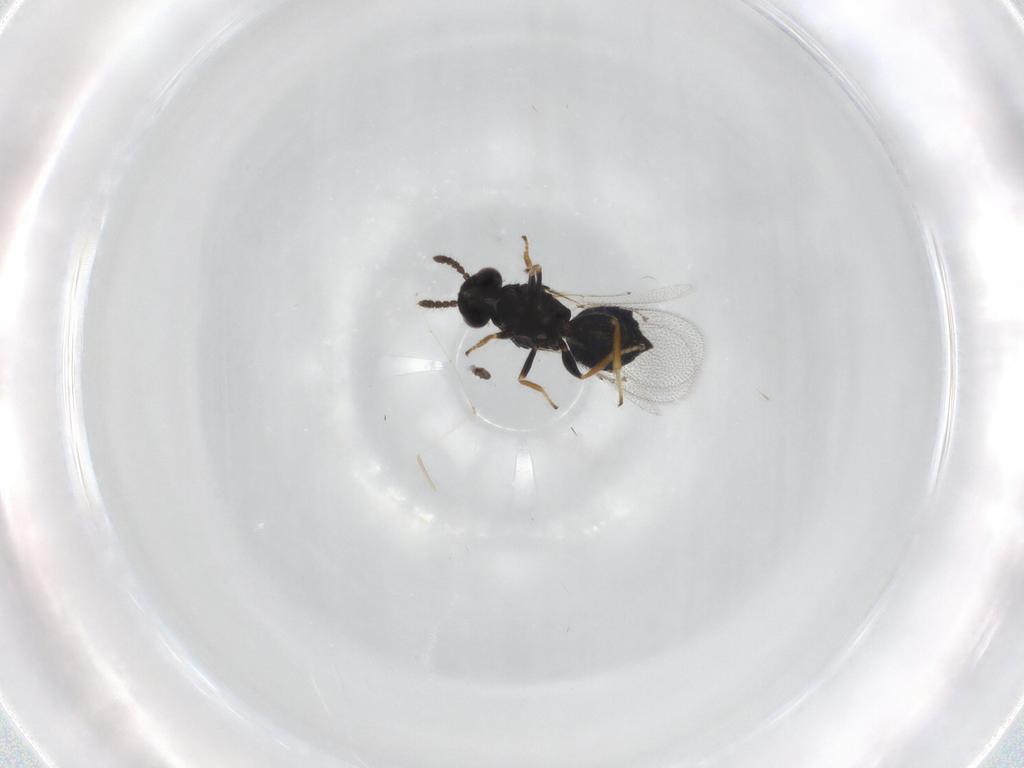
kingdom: Animalia
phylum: Arthropoda
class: Insecta
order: Hymenoptera
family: Eulophidae
